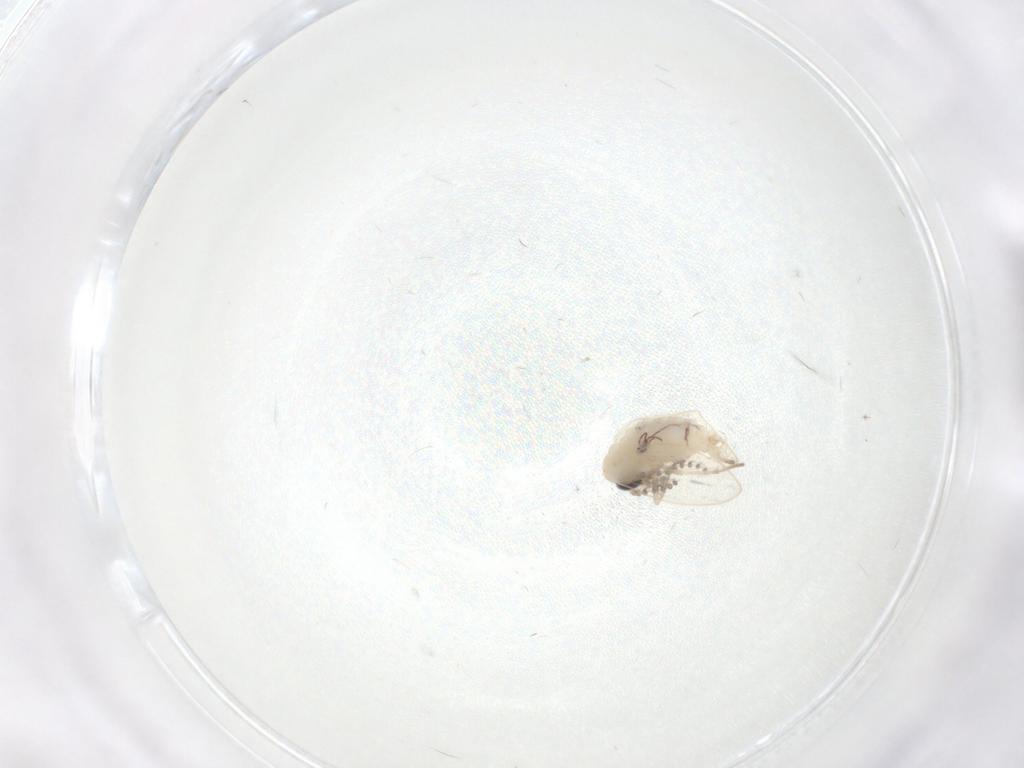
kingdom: Animalia
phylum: Arthropoda
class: Insecta
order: Diptera
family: Psychodidae
